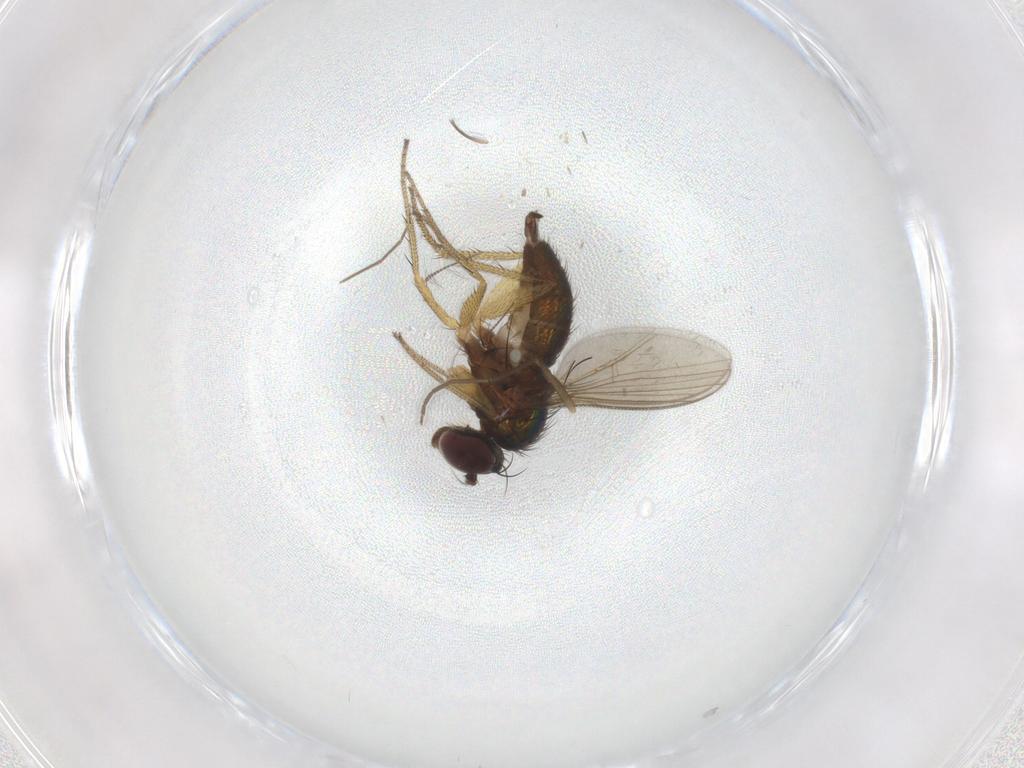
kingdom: Animalia
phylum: Arthropoda
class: Insecta
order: Diptera
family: Chironomidae
